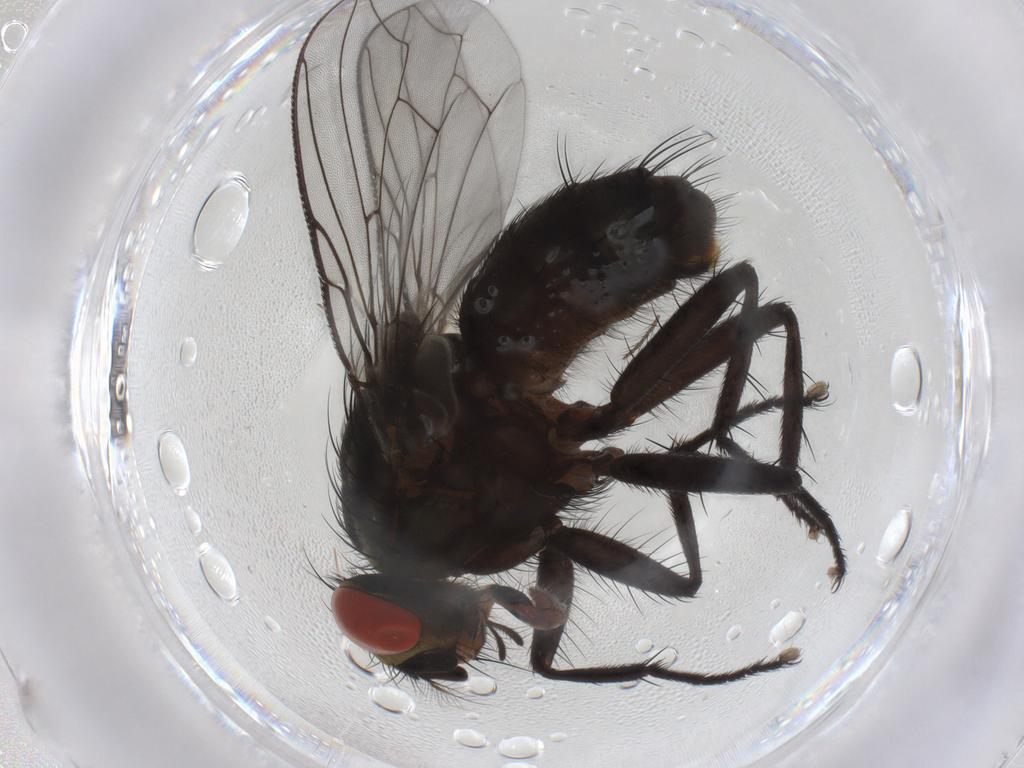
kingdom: Animalia
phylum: Arthropoda
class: Insecta
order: Diptera
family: Sarcophagidae
